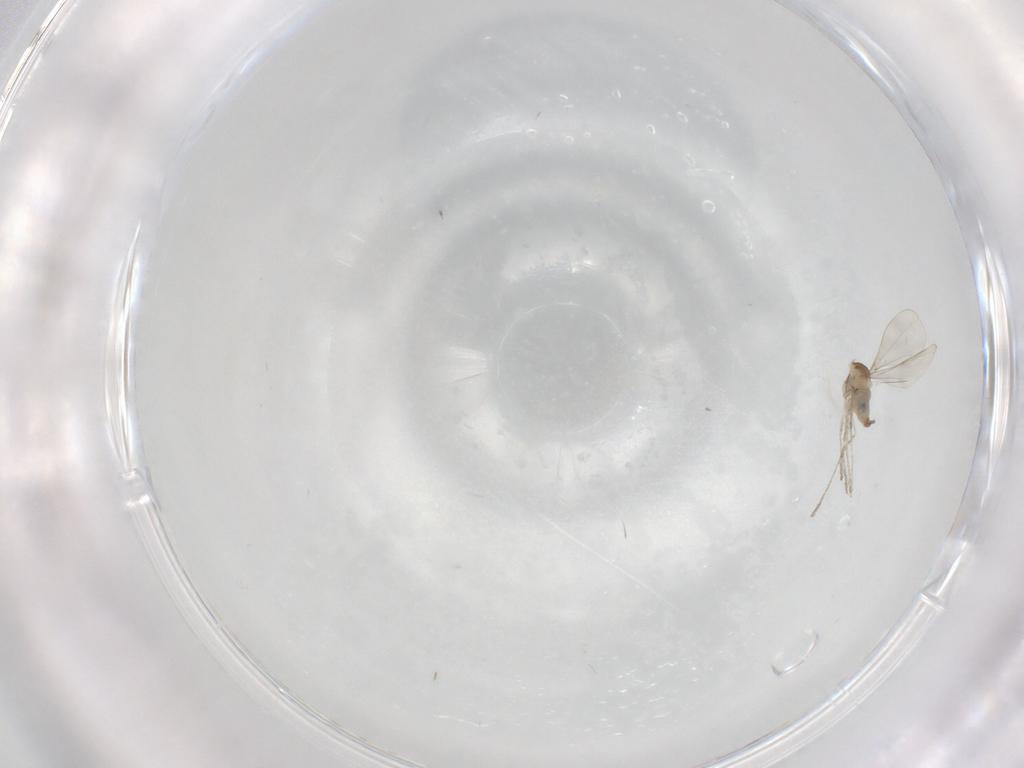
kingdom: Animalia
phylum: Arthropoda
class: Insecta
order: Diptera
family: Cecidomyiidae
